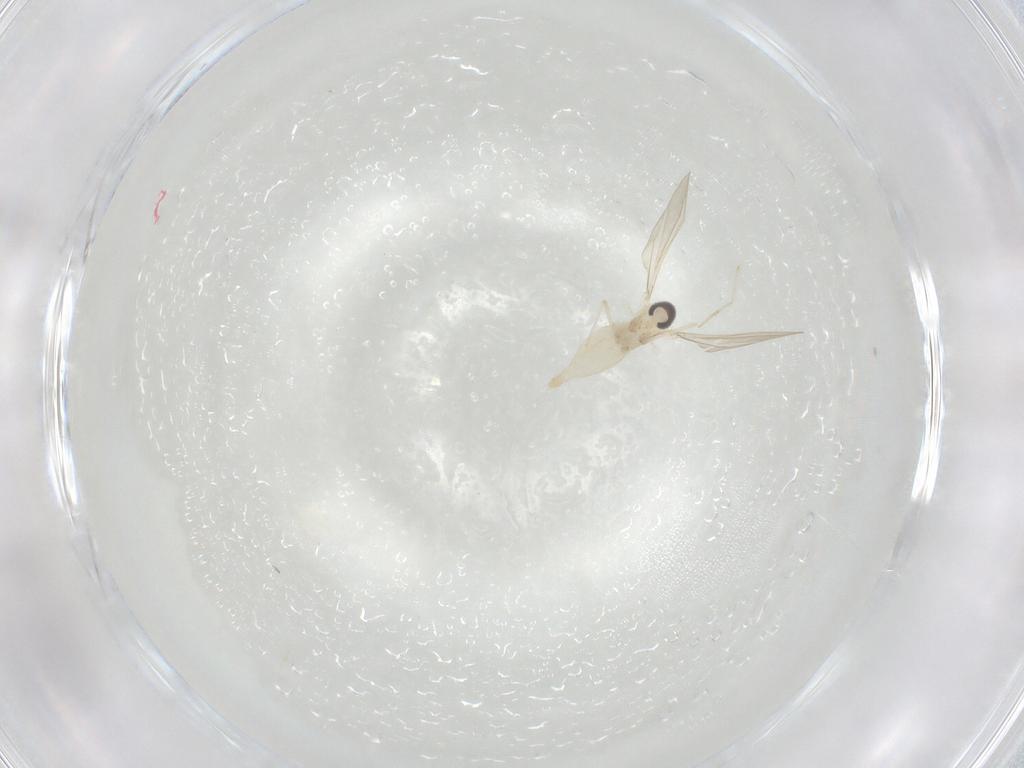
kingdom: Animalia
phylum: Arthropoda
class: Insecta
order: Diptera
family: Cecidomyiidae
